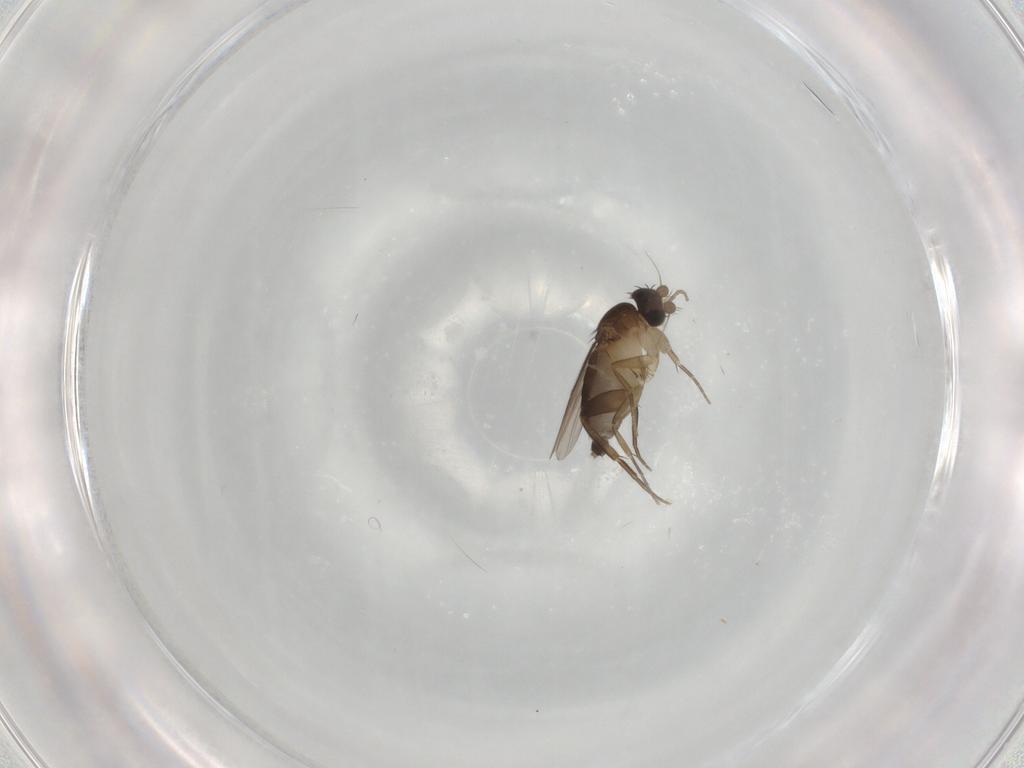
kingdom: Animalia
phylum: Arthropoda
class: Insecta
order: Diptera
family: Phoridae
